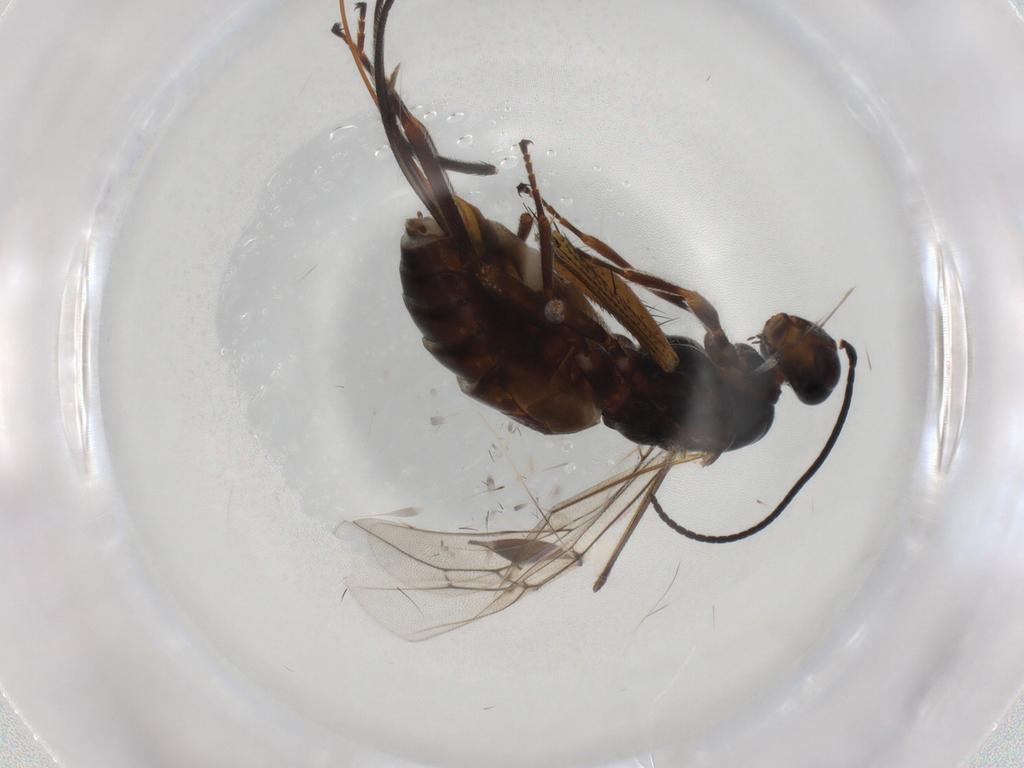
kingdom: Animalia
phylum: Arthropoda
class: Insecta
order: Hymenoptera
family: Braconidae
